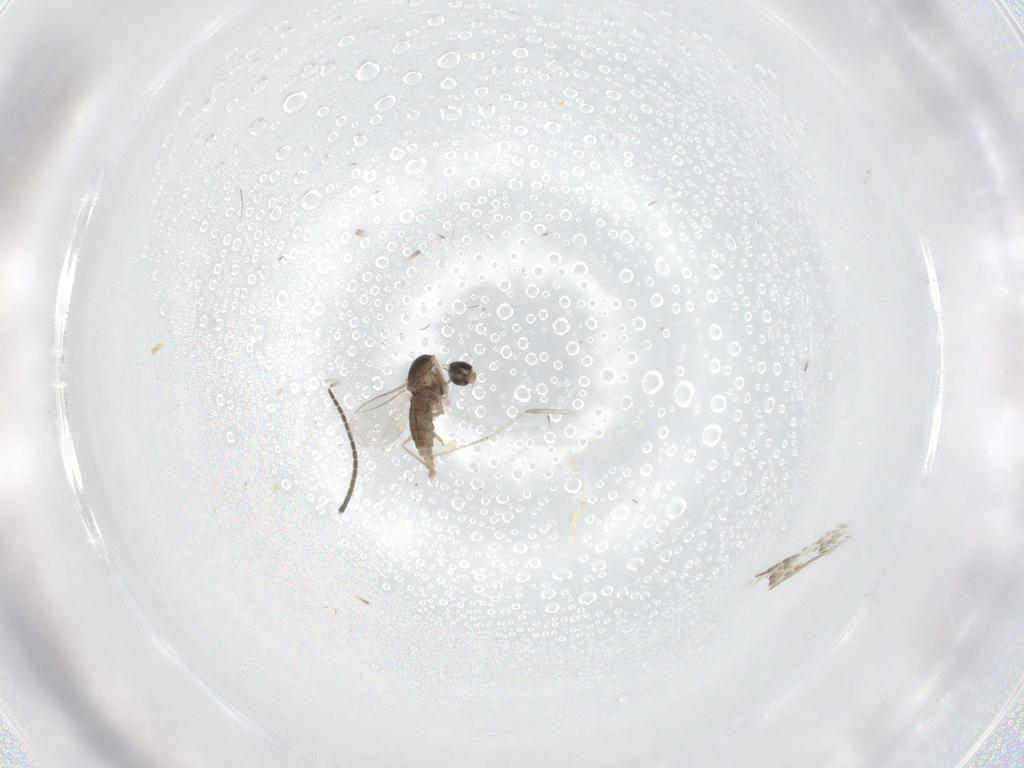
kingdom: Animalia
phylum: Arthropoda
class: Insecta
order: Diptera
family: Cecidomyiidae
